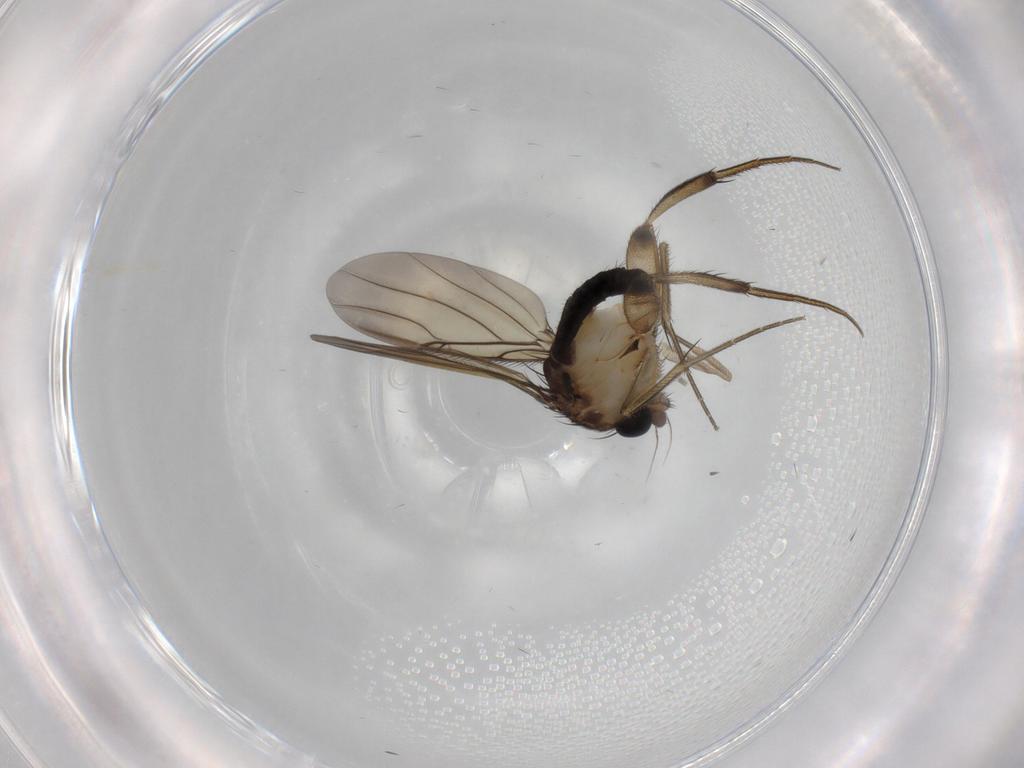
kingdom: Animalia
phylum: Arthropoda
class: Insecta
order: Diptera
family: Phoridae
